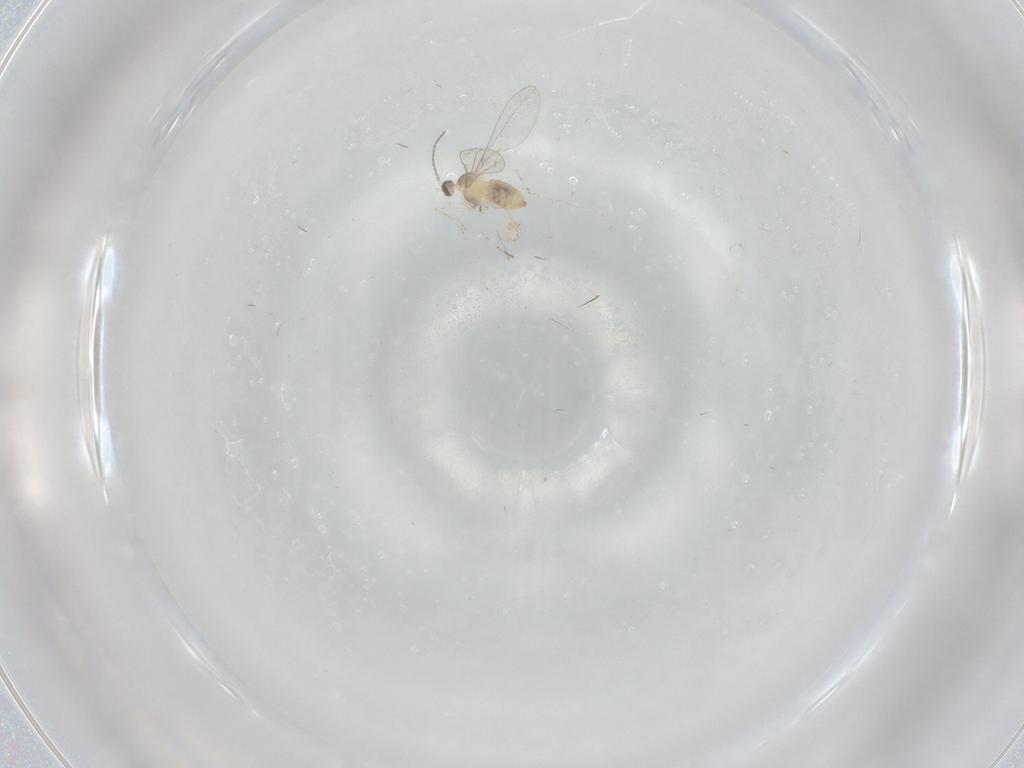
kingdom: Animalia
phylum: Arthropoda
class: Insecta
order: Diptera
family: Cecidomyiidae
